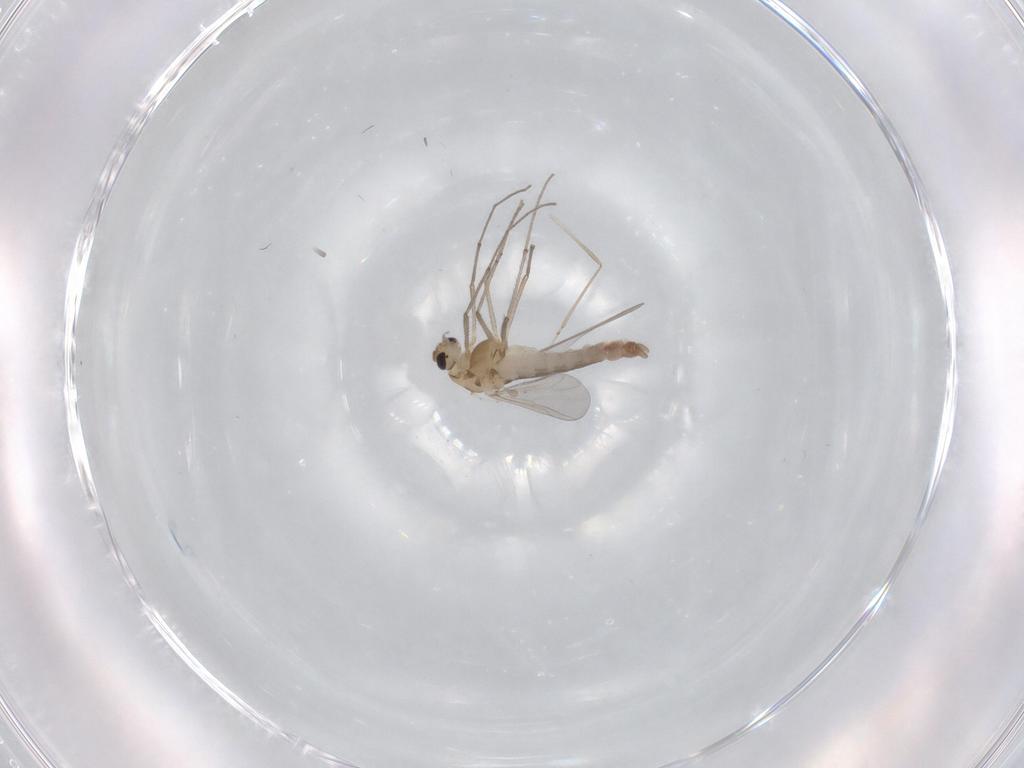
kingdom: Animalia
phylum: Arthropoda
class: Insecta
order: Diptera
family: Chironomidae
